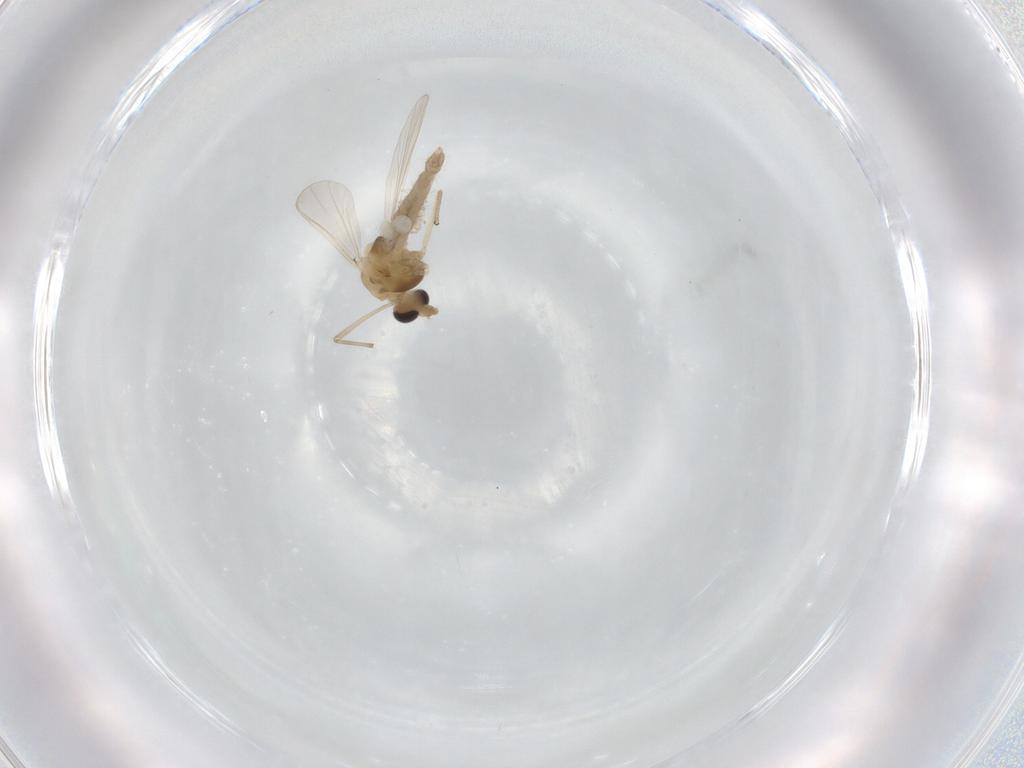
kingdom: Animalia
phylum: Arthropoda
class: Insecta
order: Diptera
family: Chironomidae
